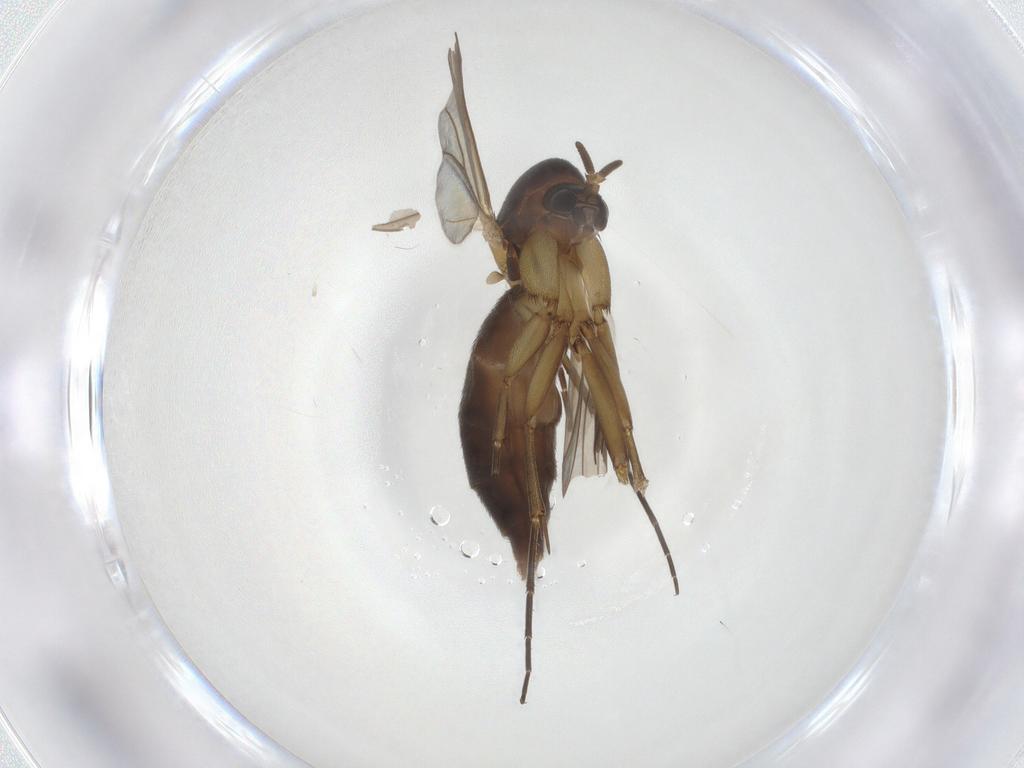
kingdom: Animalia
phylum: Arthropoda
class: Insecta
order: Diptera
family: Mycetophilidae
